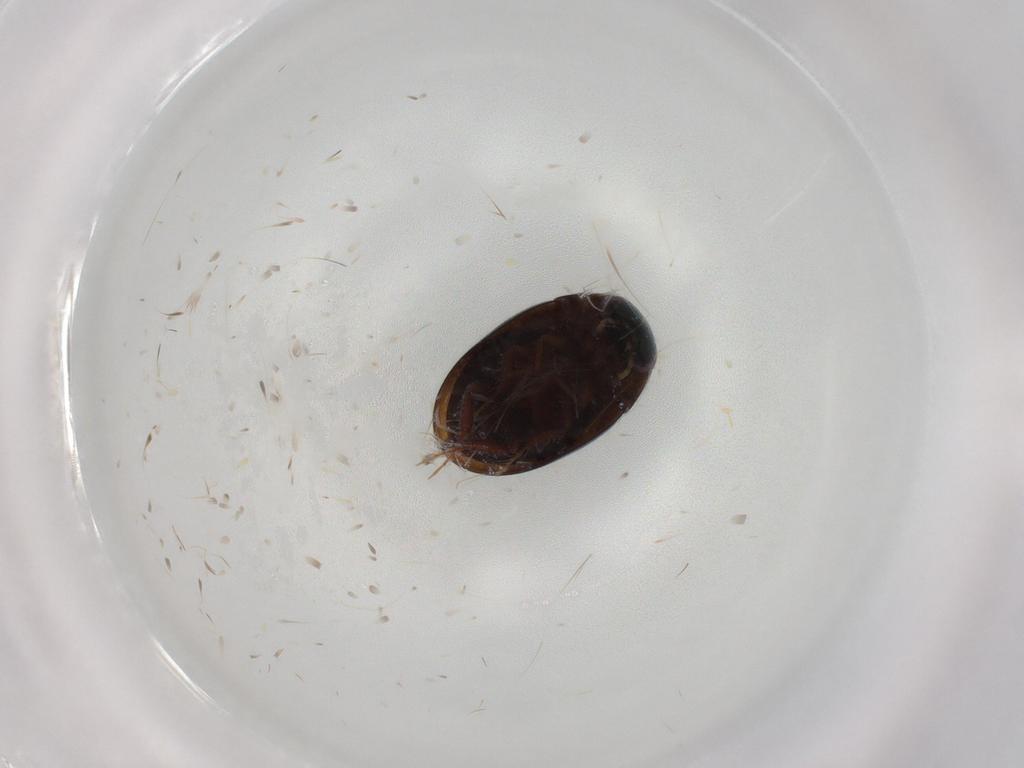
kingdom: Animalia
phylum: Arthropoda
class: Insecta
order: Coleoptera
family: Hydrophilidae
